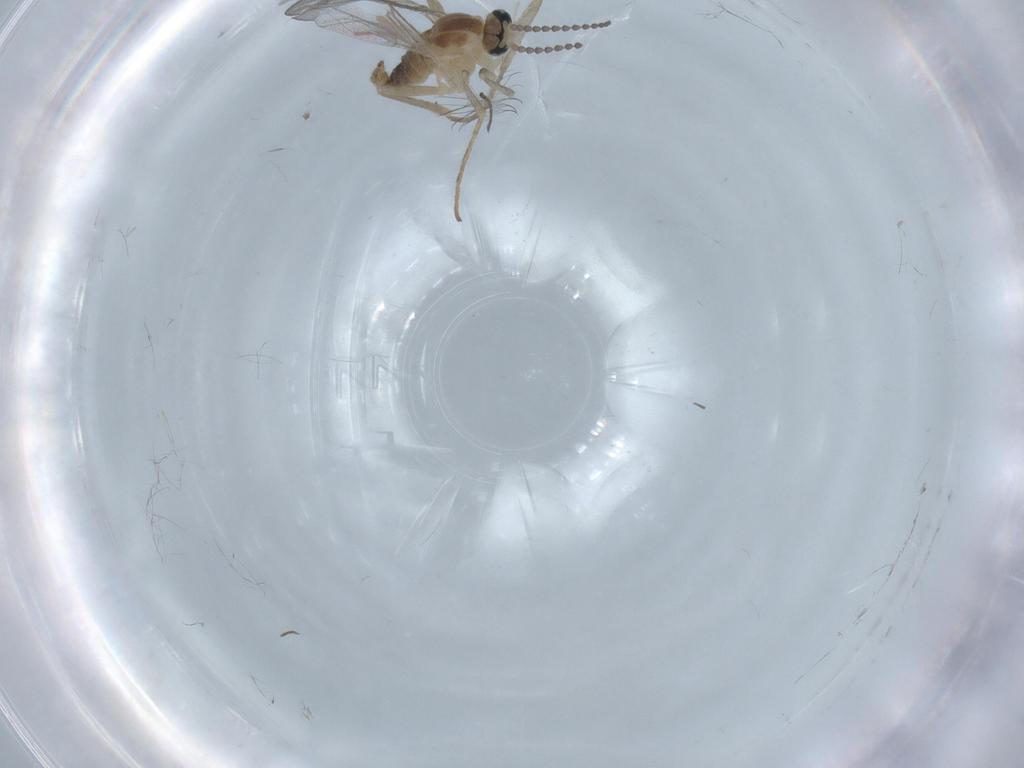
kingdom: Animalia
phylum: Arthropoda
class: Insecta
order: Diptera
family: Cecidomyiidae
